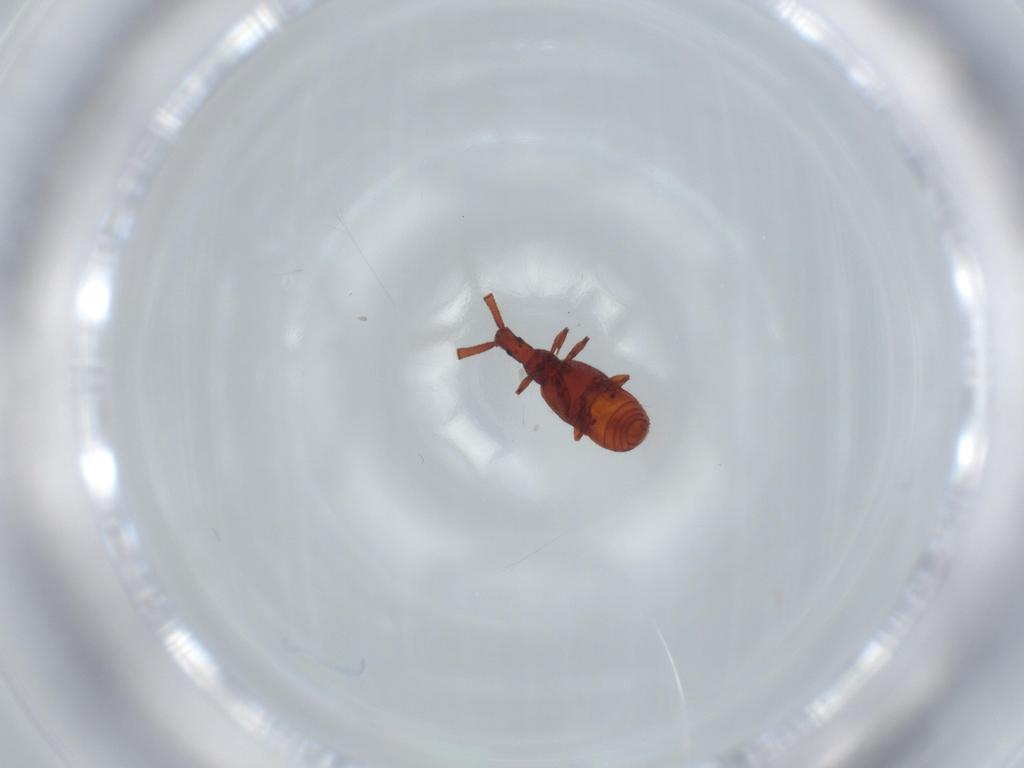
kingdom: Animalia
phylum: Arthropoda
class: Insecta
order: Coleoptera
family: Staphylinidae
